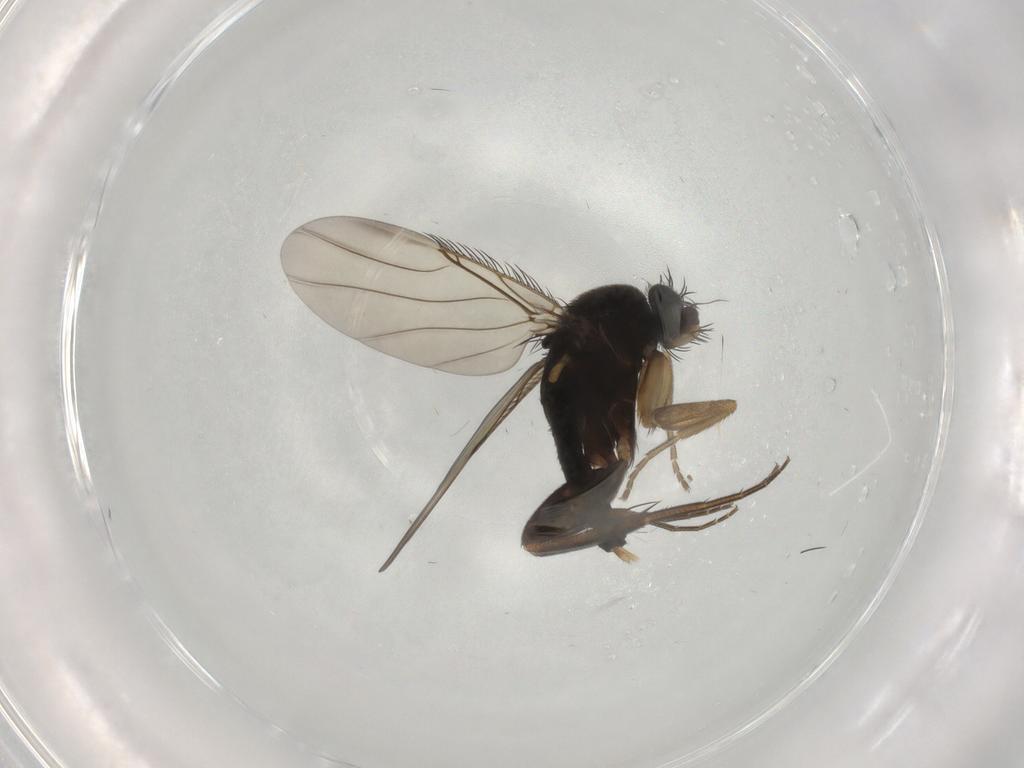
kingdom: Animalia
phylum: Arthropoda
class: Insecta
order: Diptera
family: Phoridae
